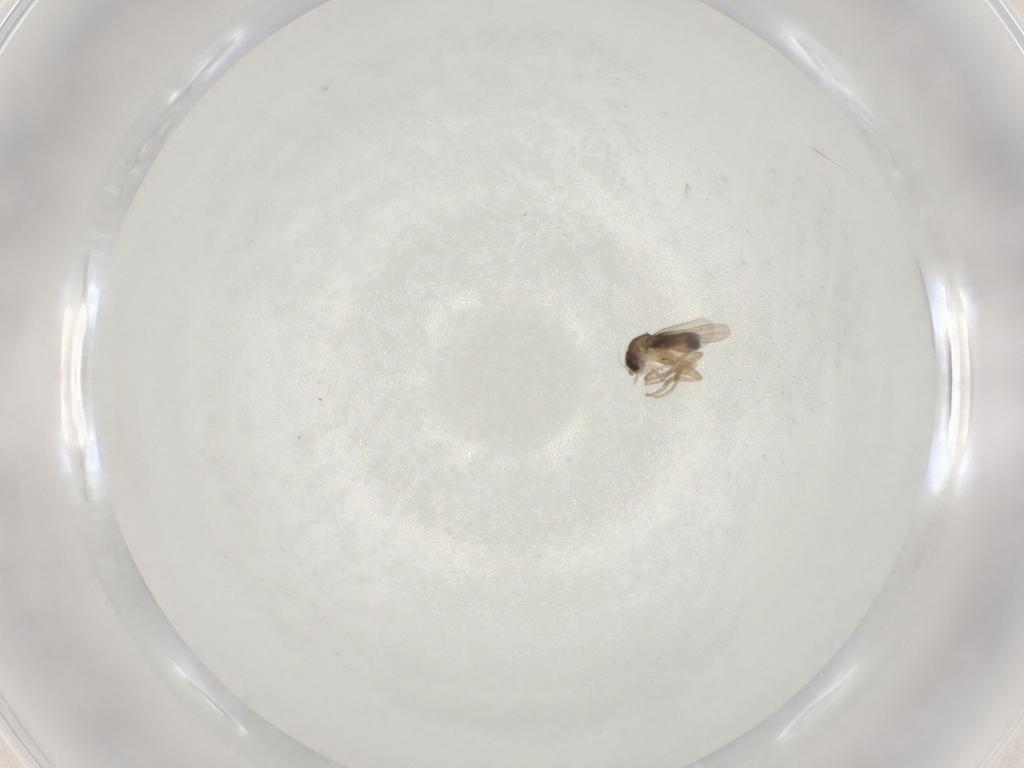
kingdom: Animalia
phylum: Arthropoda
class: Insecta
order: Diptera
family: Phoridae
